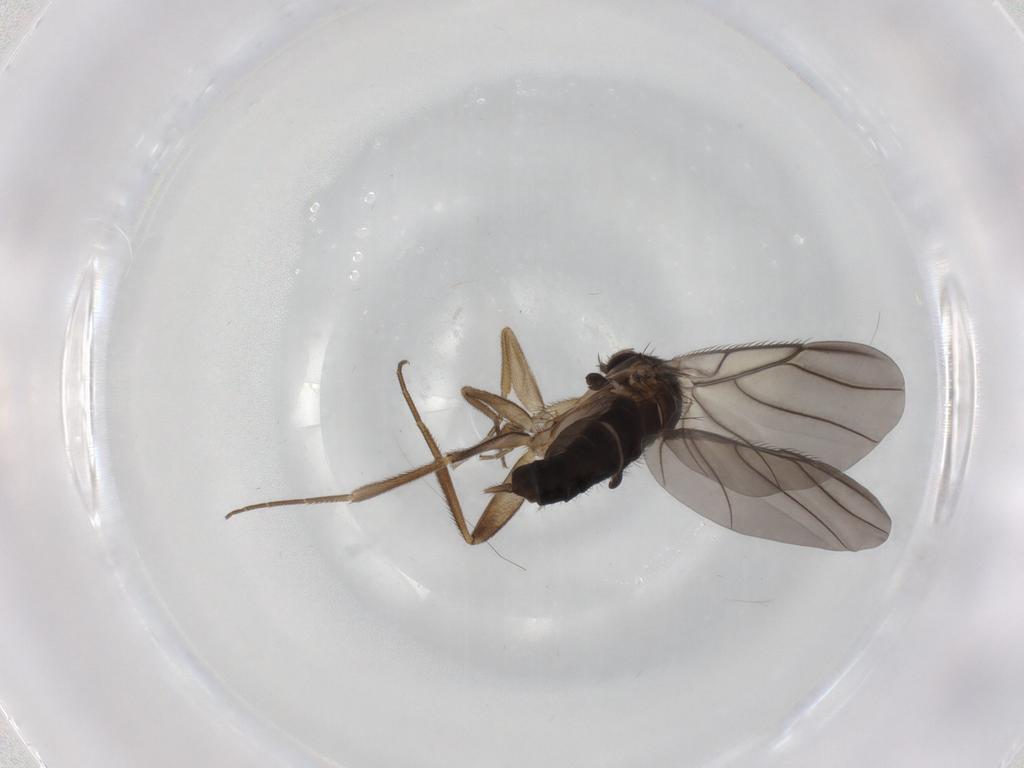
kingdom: Animalia
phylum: Arthropoda
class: Insecta
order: Diptera
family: Phoridae
